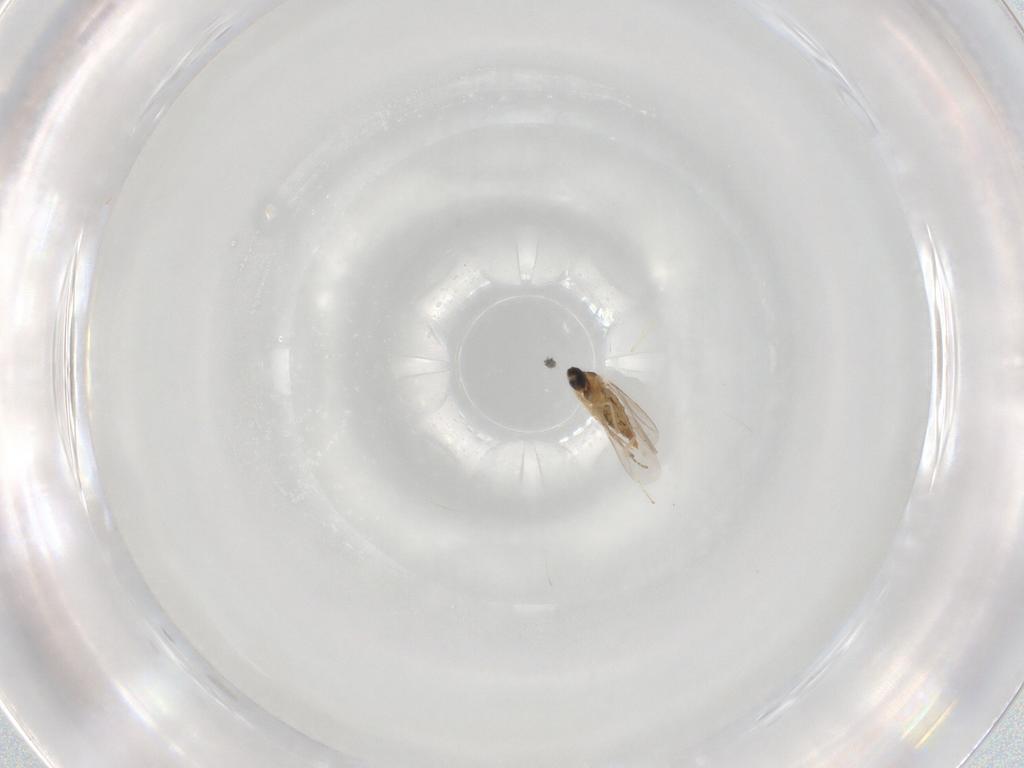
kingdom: Animalia
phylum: Arthropoda
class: Insecta
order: Diptera
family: Cecidomyiidae
